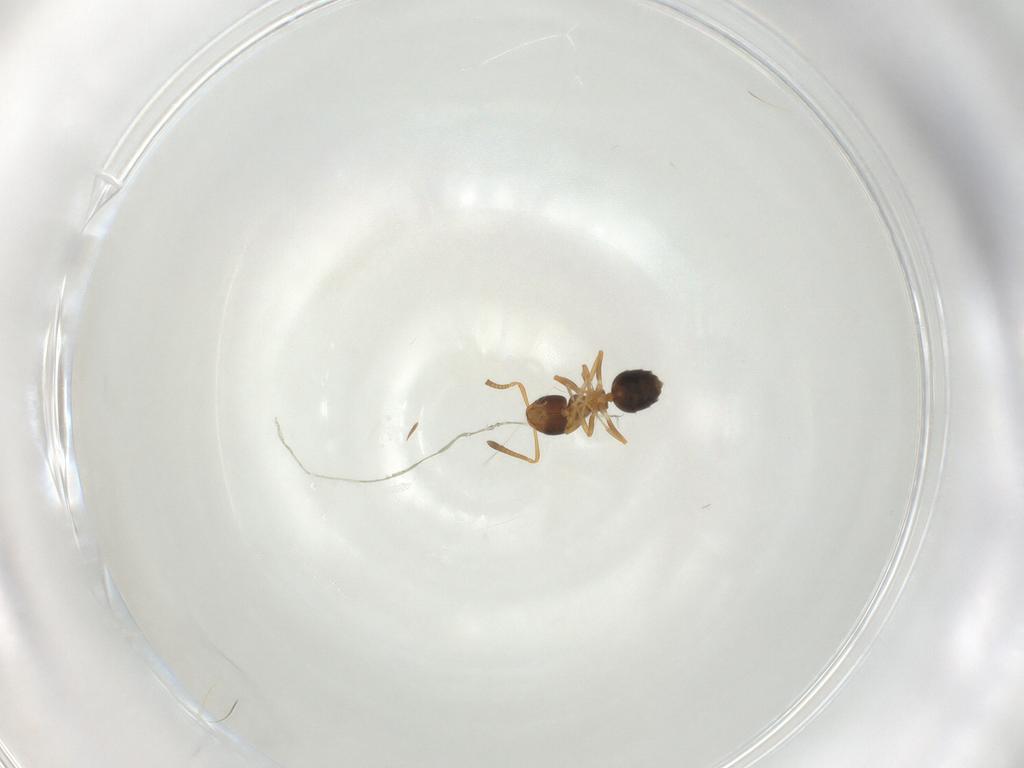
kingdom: Animalia
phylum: Arthropoda
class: Insecta
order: Hymenoptera
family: Formicidae
